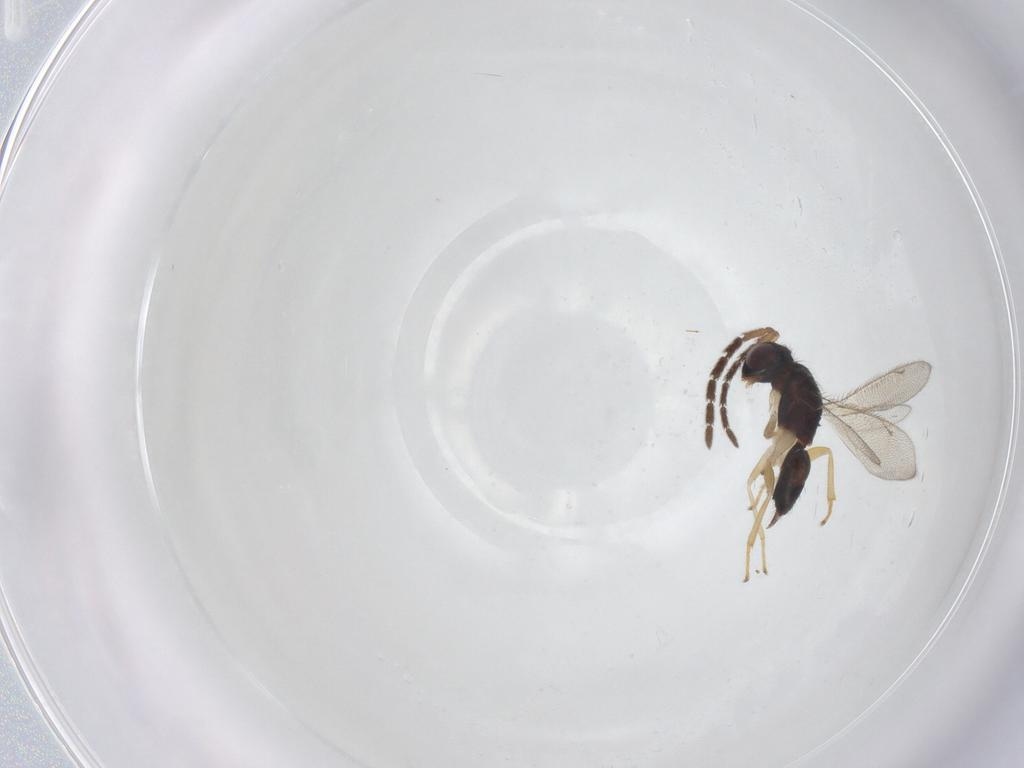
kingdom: Animalia
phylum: Arthropoda
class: Insecta
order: Hymenoptera
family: Eulophidae
